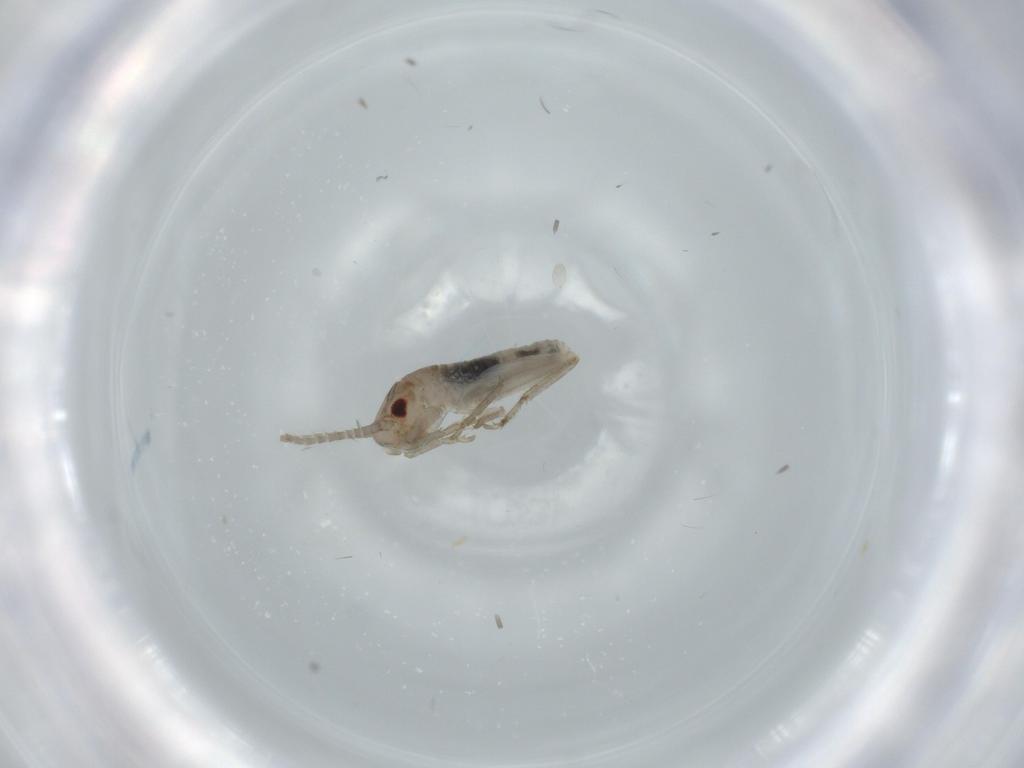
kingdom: Animalia
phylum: Arthropoda
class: Insecta
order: Orthoptera
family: Mogoplistidae
